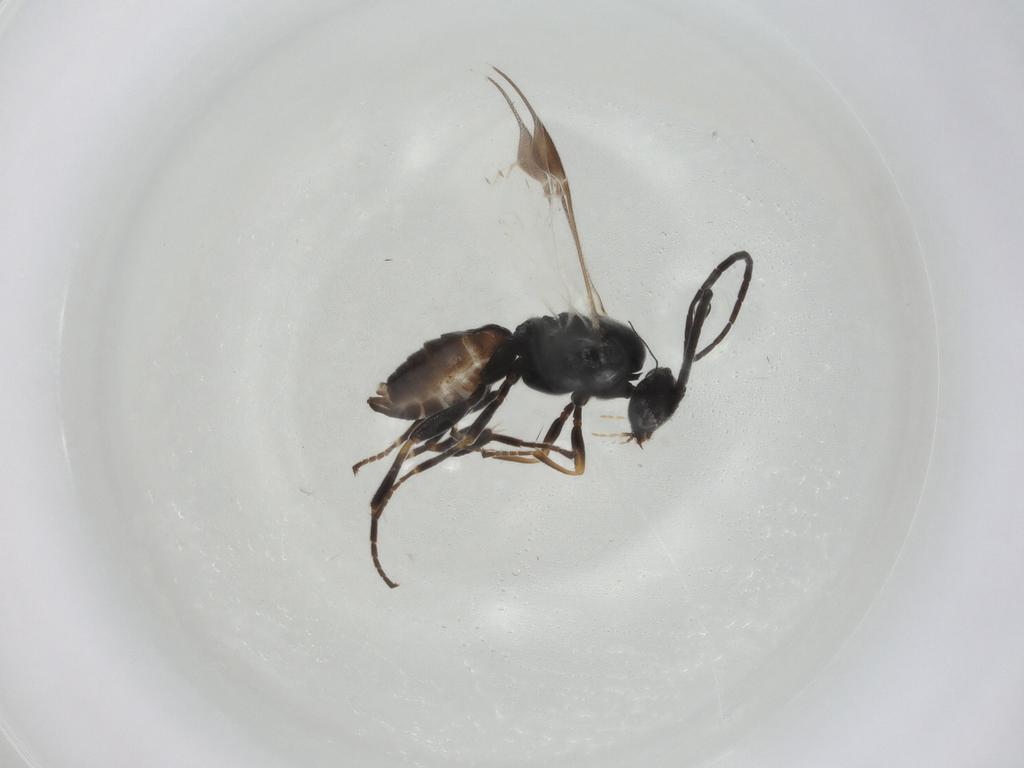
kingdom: Animalia
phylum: Arthropoda
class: Insecta
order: Hymenoptera
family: Braconidae
